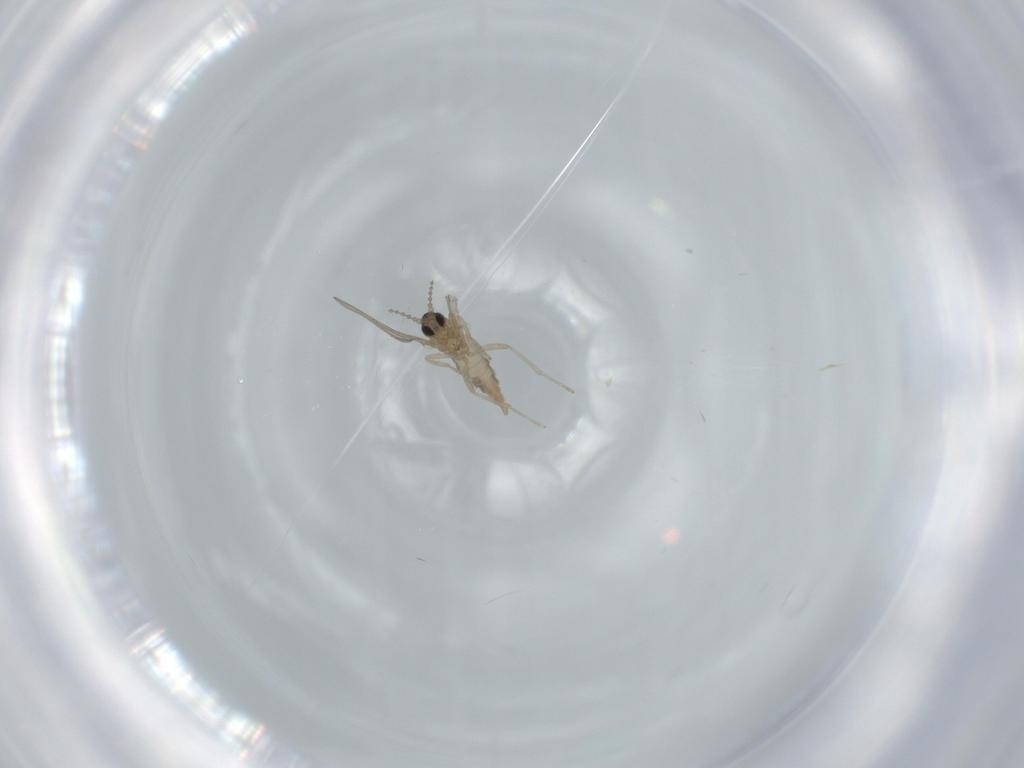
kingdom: Animalia
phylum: Arthropoda
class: Insecta
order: Diptera
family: Cecidomyiidae
